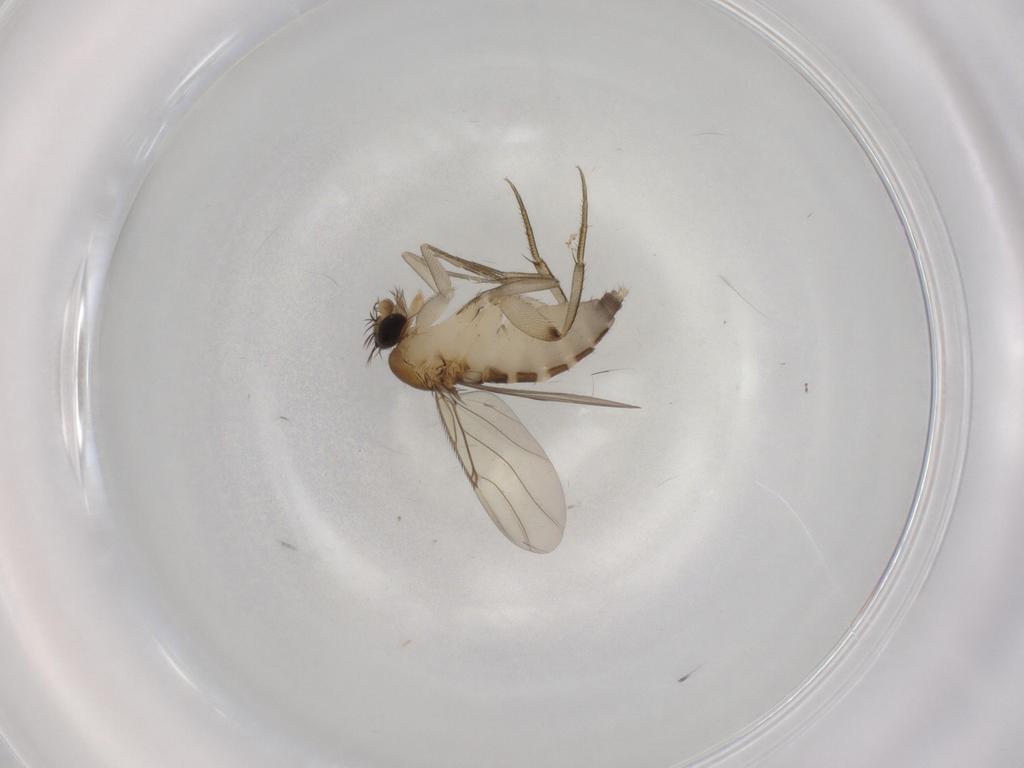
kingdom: Animalia
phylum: Arthropoda
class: Insecta
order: Diptera
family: Phoridae
